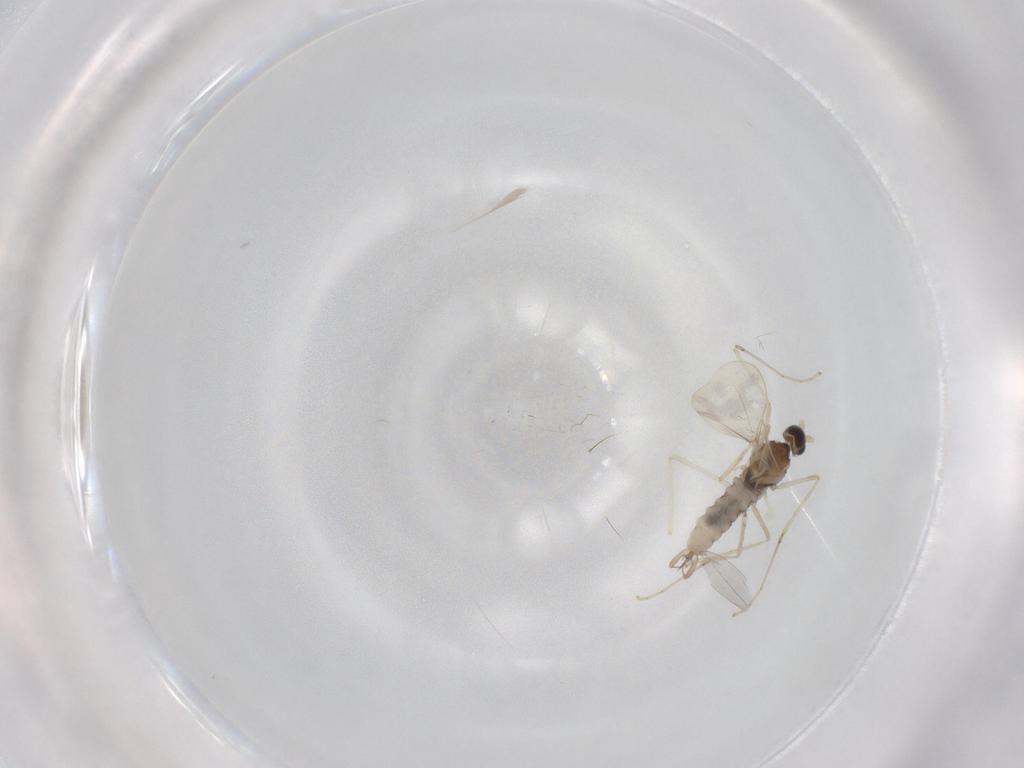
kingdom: Animalia
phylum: Arthropoda
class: Insecta
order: Diptera
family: Cecidomyiidae
